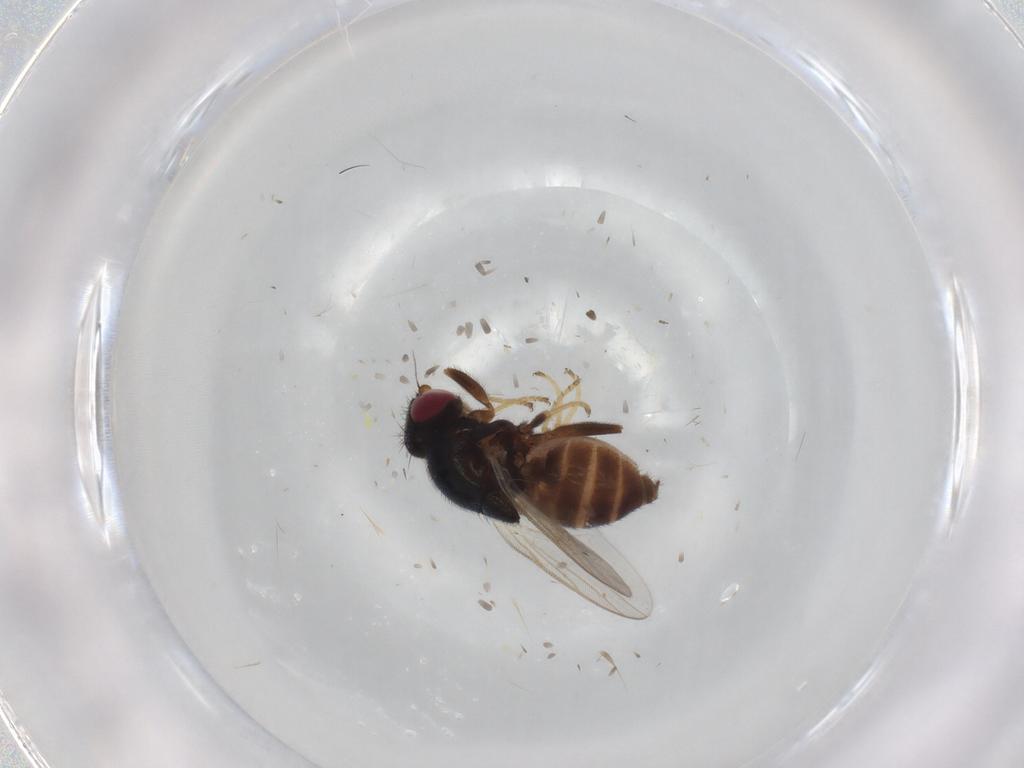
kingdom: Animalia
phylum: Arthropoda
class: Insecta
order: Diptera
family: Chloropidae
